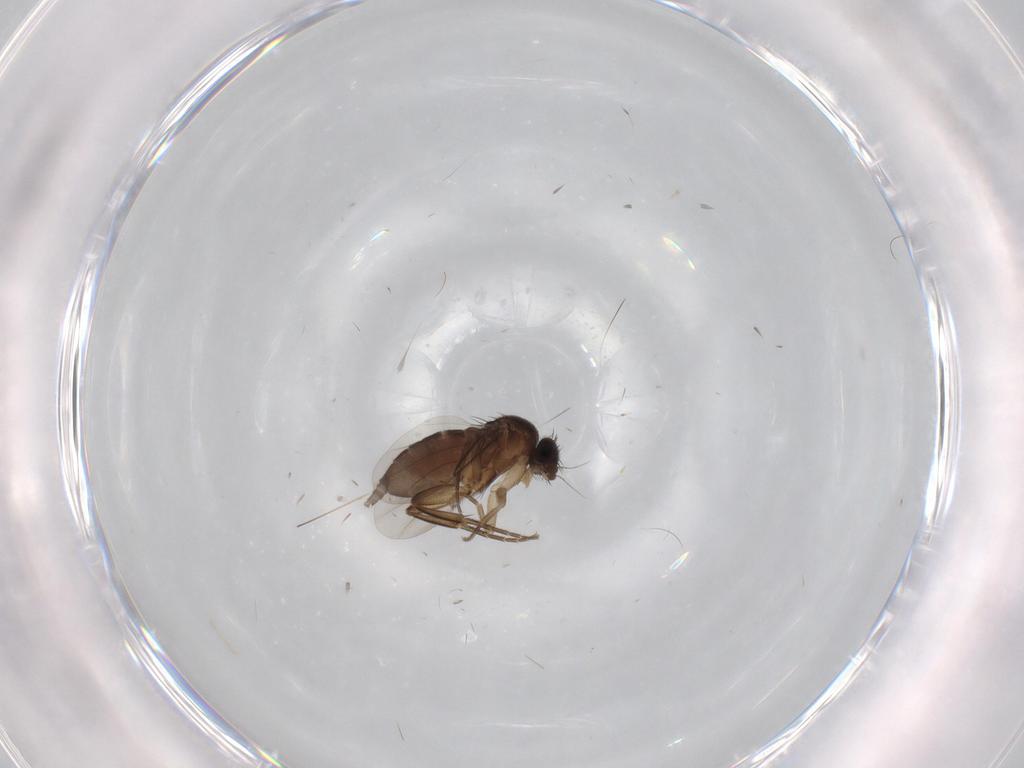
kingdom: Animalia
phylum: Arthropoda
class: Insecta
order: Diptera
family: Phoridae
